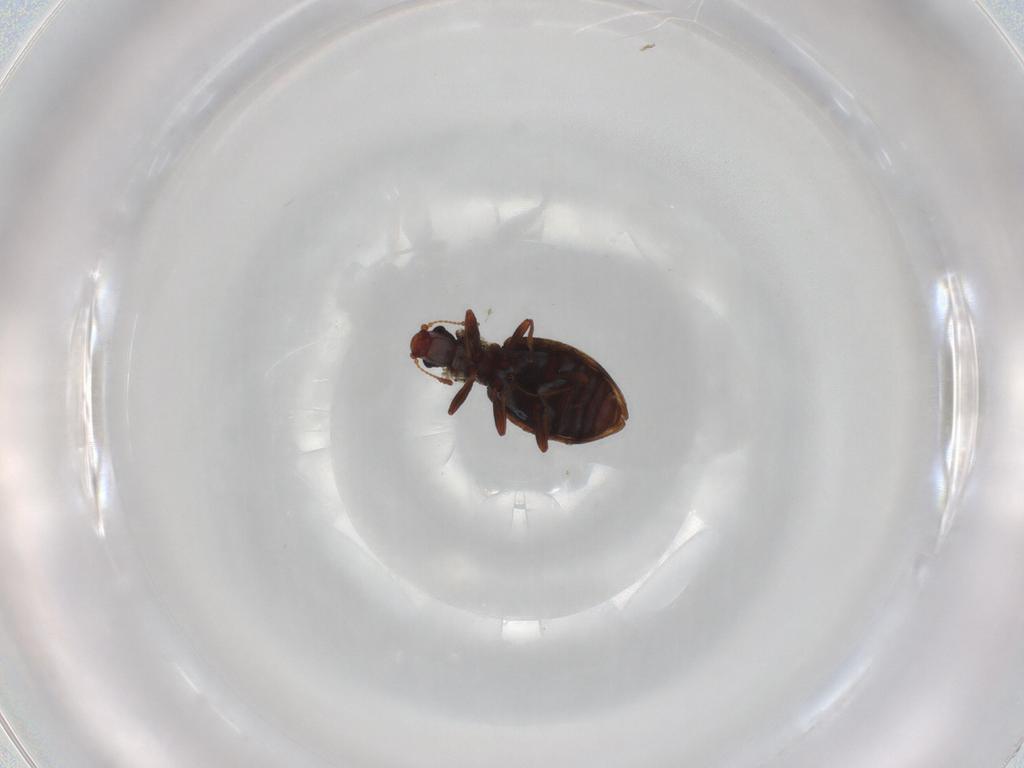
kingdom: Animalia
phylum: Arthropoda
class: Insecta
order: Coleoptera
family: Latridiidae
